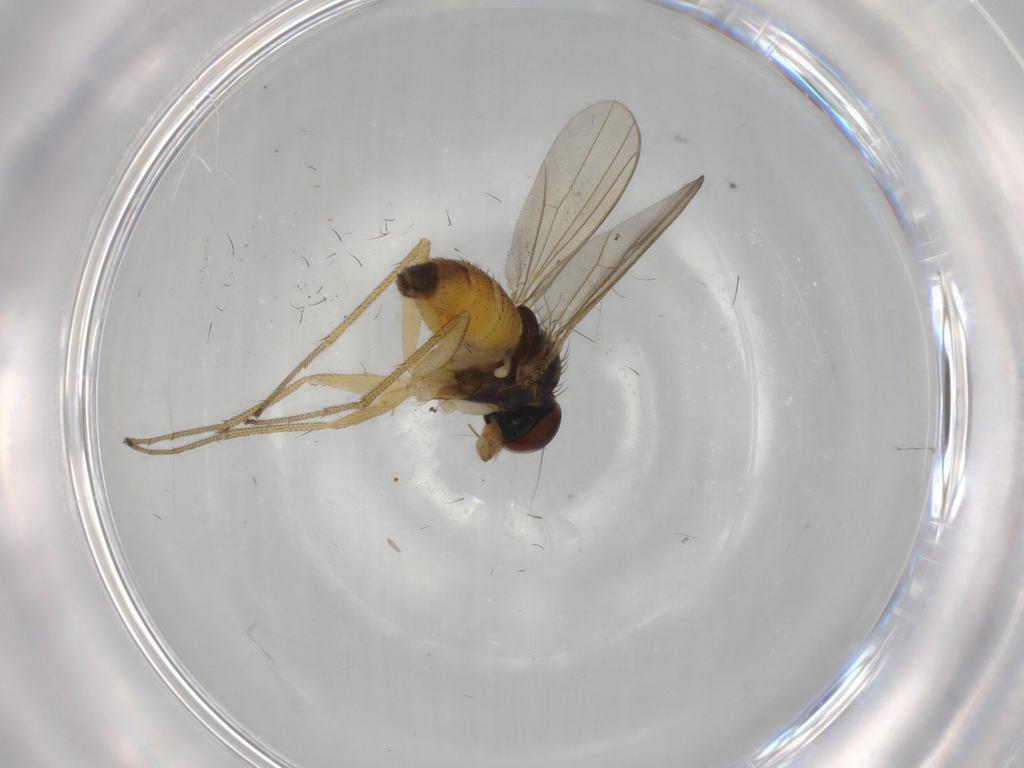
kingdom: Animalia
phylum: Arthropoda
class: Insecta
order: Diptera
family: Dolichopodidae
